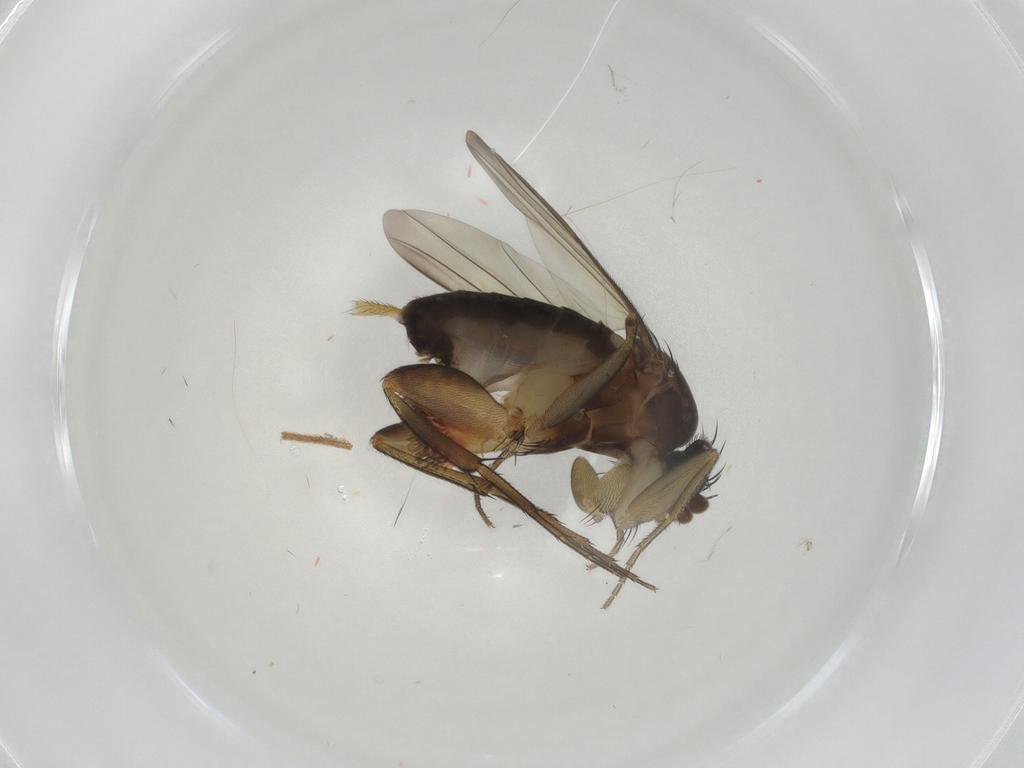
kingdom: Animalia
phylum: Arthropoda
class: Insecta
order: Diptera
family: Phoridae
